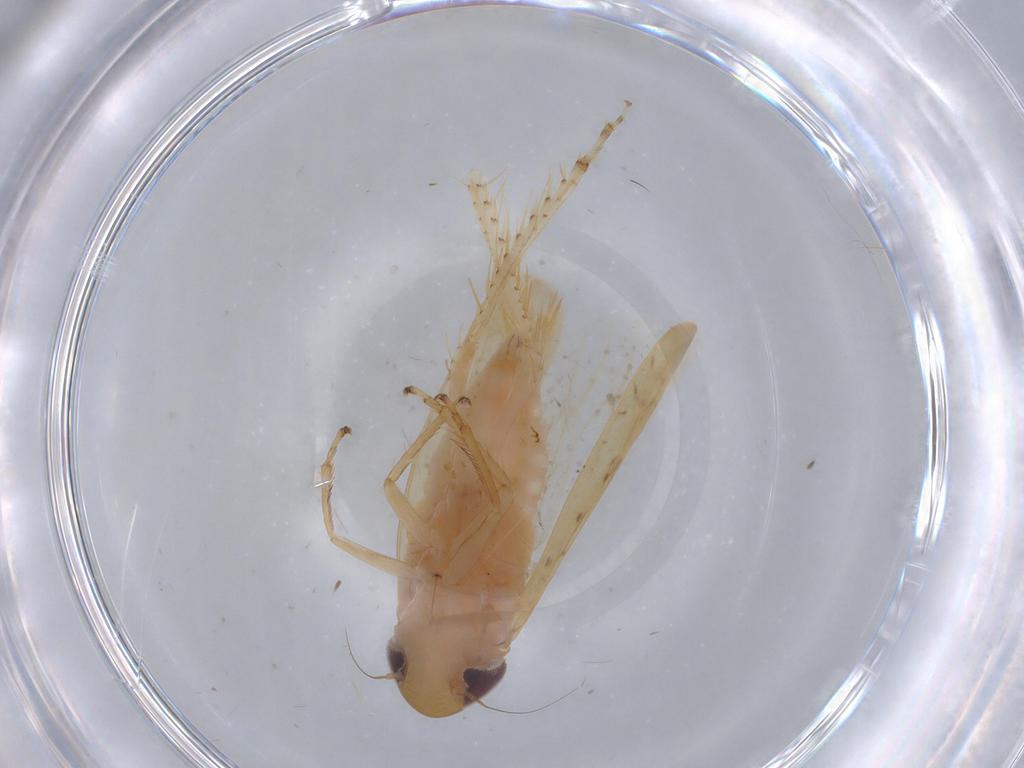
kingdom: Animalia
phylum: Arthropoda
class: Insecta
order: Hemiptera
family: Cicadellidae
